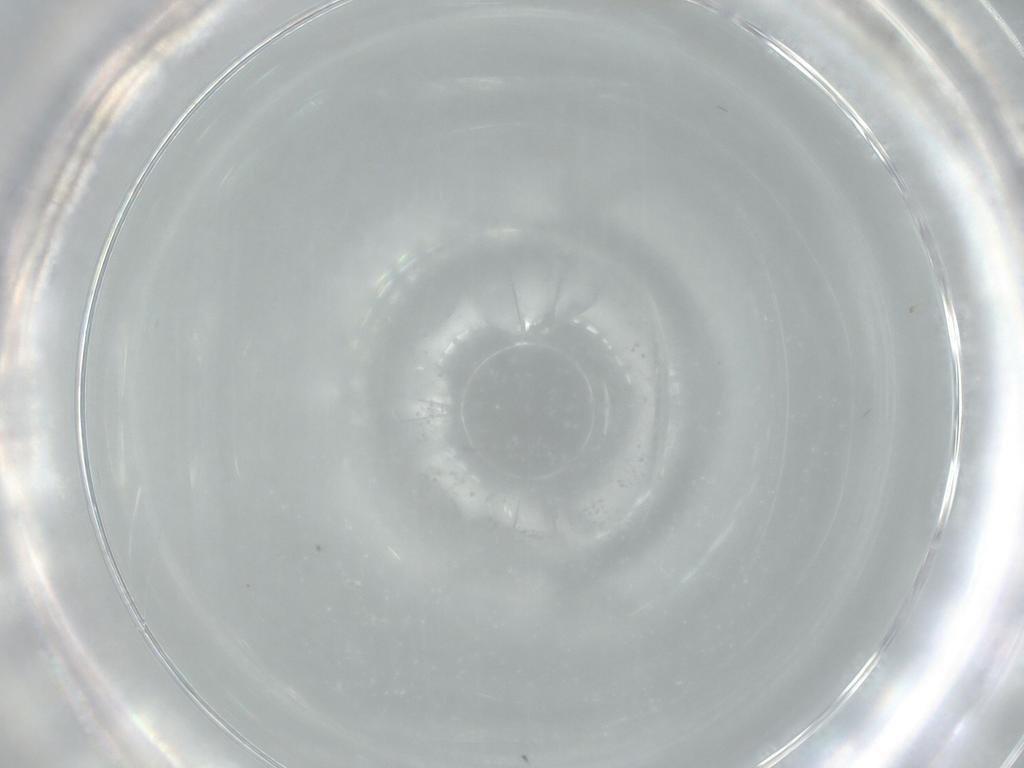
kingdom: Animalia
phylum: Arthropoda
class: Insecta
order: Diptera
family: Cecidomyiidae
